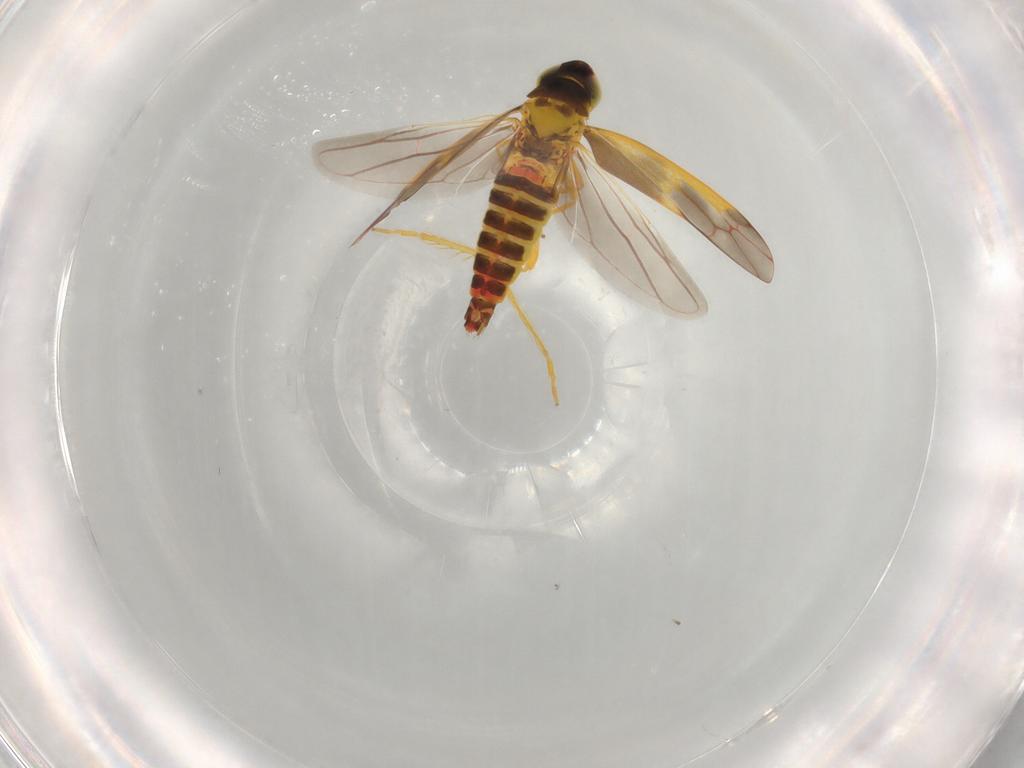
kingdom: Animalia
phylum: Arthropoda
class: Insecta
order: Hemiptera
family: Cicadellidae
